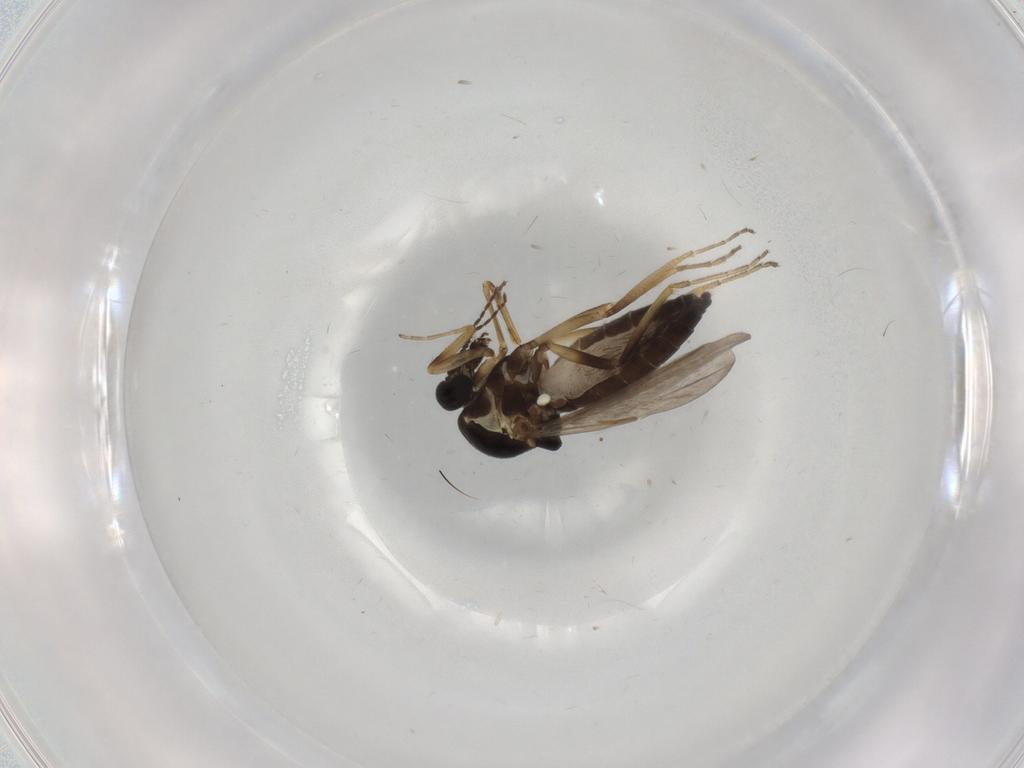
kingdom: Animalia
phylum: Arthropoda
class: Insecta
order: Diptera
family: Ceratopogonidae
